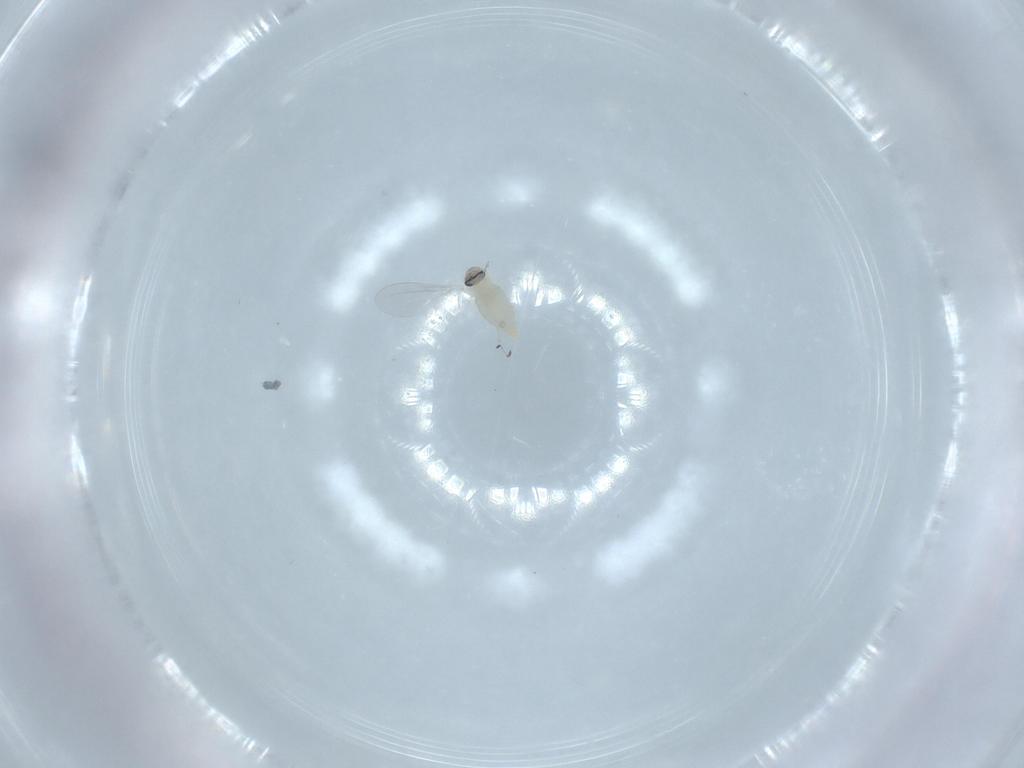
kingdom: Animalia
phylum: Arthropoda
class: Insecta
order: Diptera
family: Cecidomyiidae
